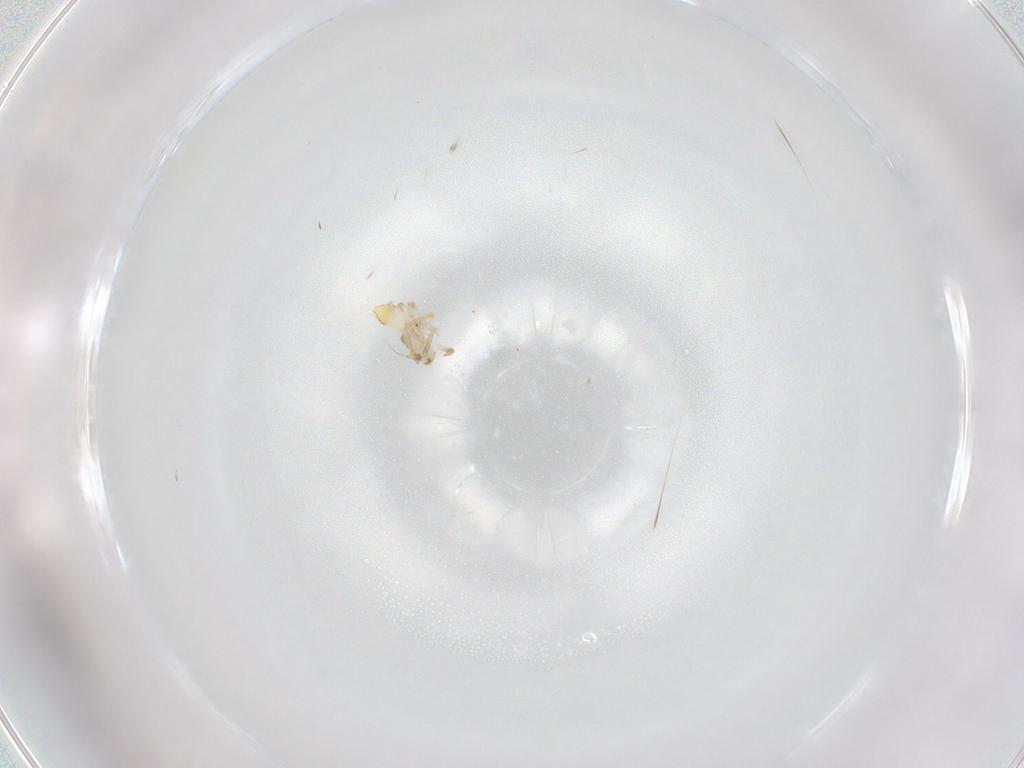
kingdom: Animalia
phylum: Arthropoda
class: Insecta
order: Hemiptera
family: Delphacidae
